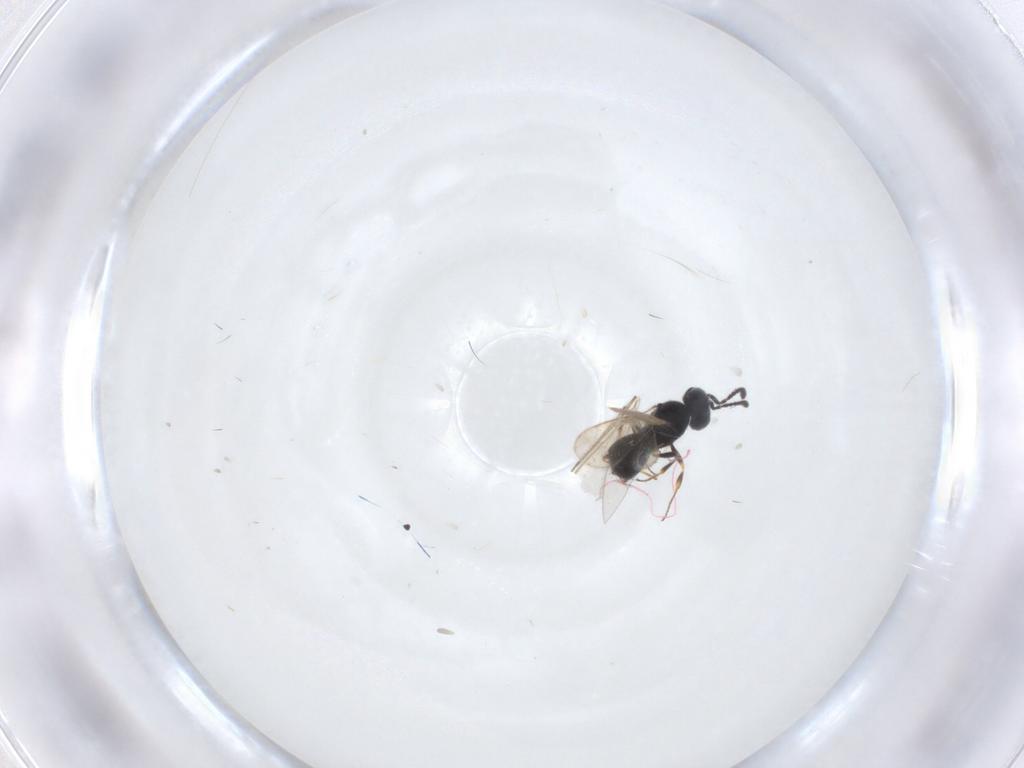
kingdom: Animalia
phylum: Arthropoda
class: Insecta
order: Hymenoptera
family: Scelionidae
